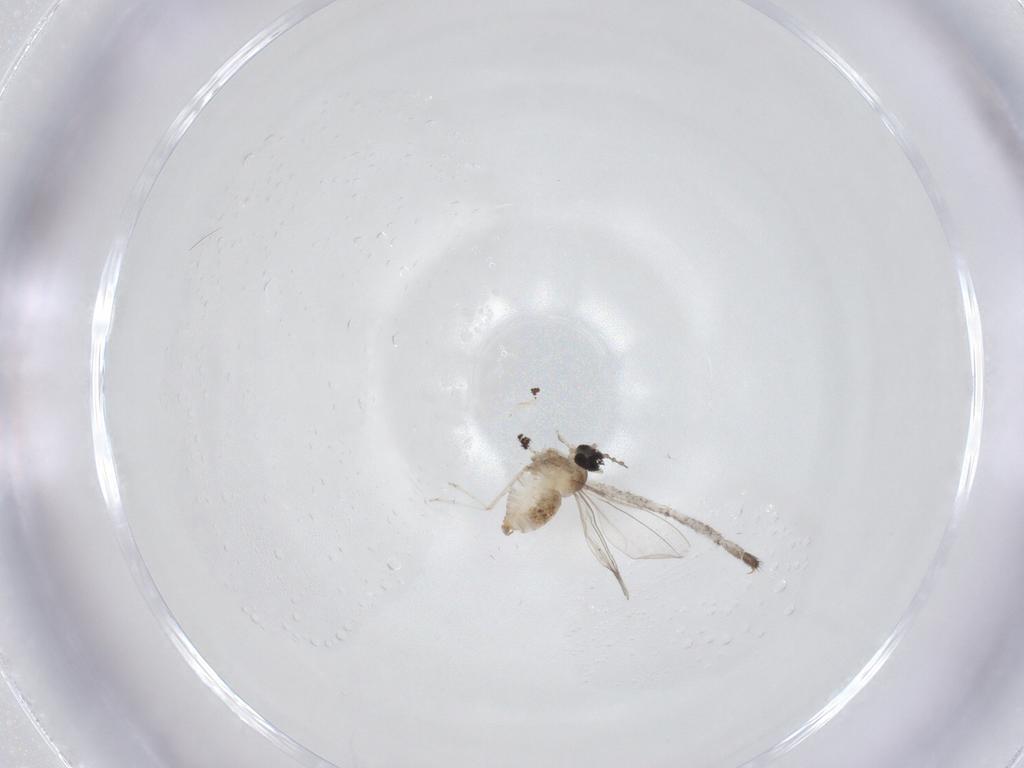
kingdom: Animalia
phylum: Arthropoda
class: Insecta
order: Diptera
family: Cecidomyiidae
